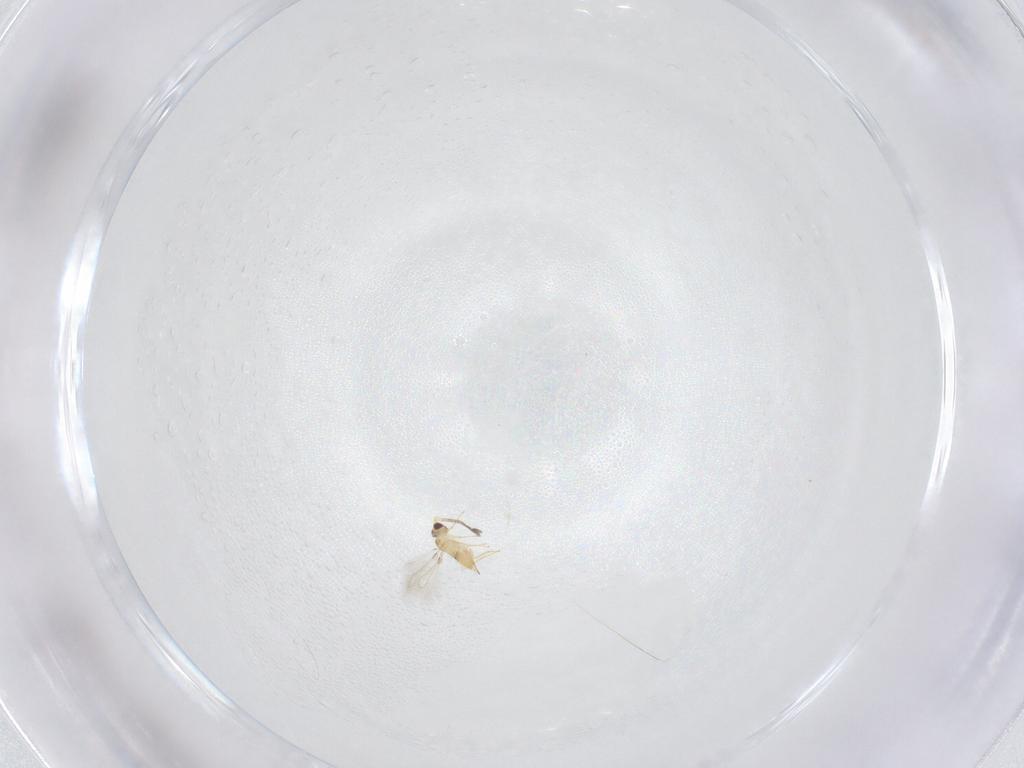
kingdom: Animalia
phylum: Arthropoda
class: Insecta
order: Hymenoptera
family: Mymaridae
